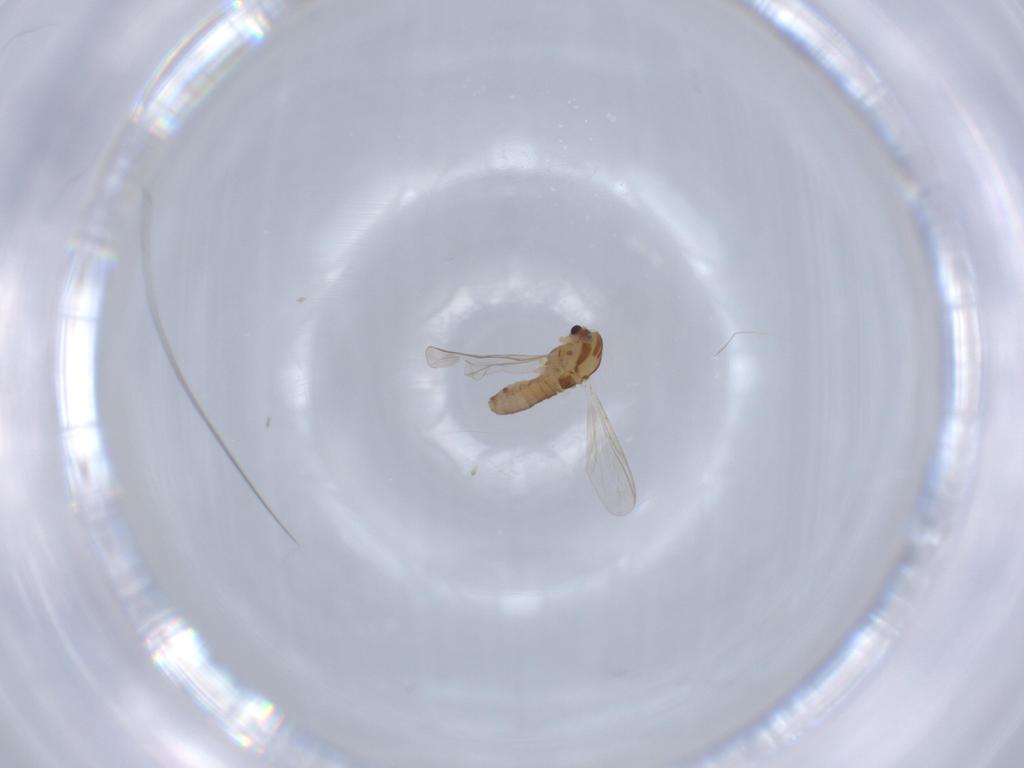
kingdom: Animalia
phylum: Arthropoda
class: Insecta
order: Diptera
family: Chironomidae
